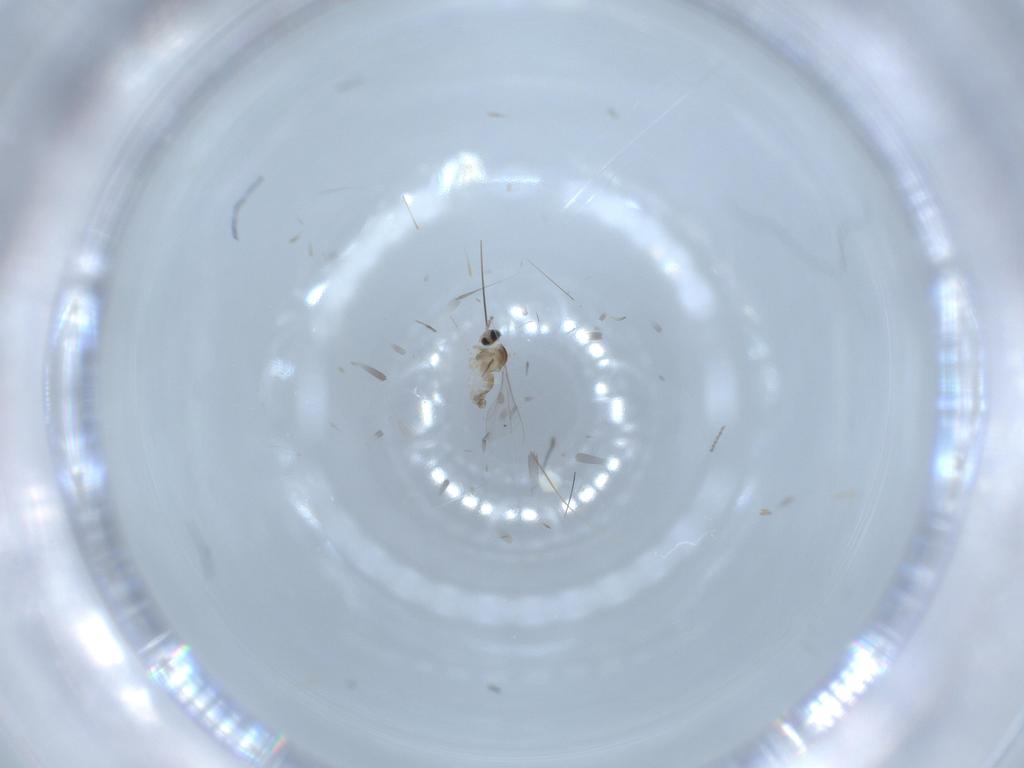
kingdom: Animalia
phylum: Arthropoda
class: Insecta
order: Diptera
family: Cecidomyiidae
